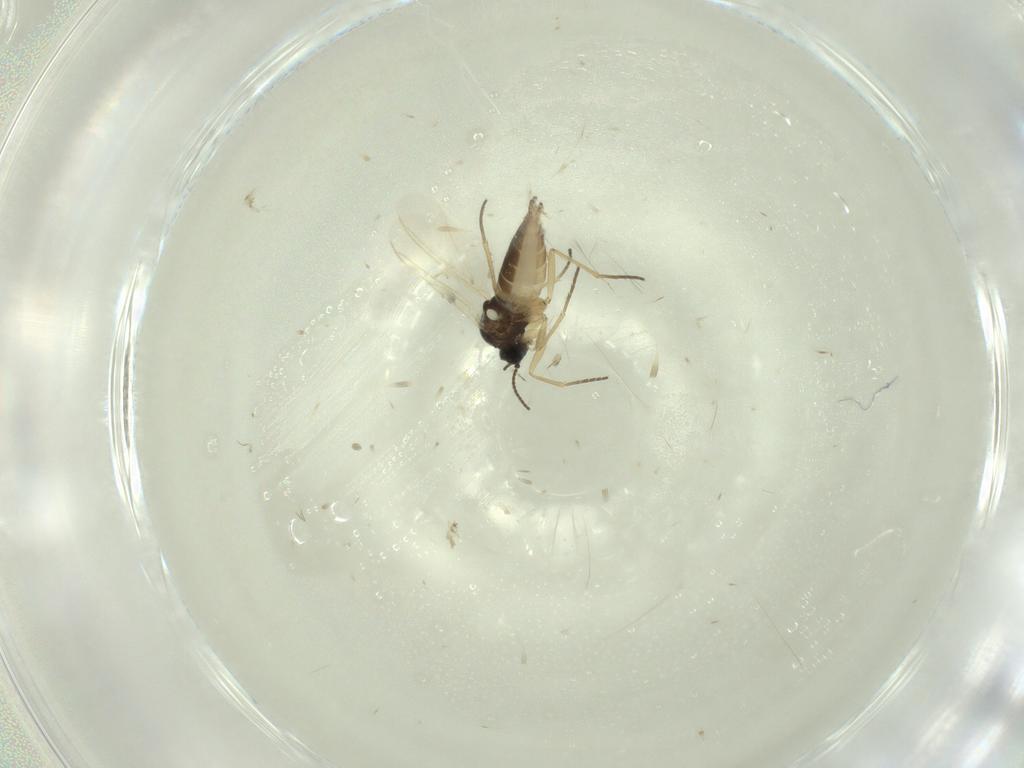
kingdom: Animalia
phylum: Arthropoda
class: Insecta
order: Diptera
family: Sciaridae
